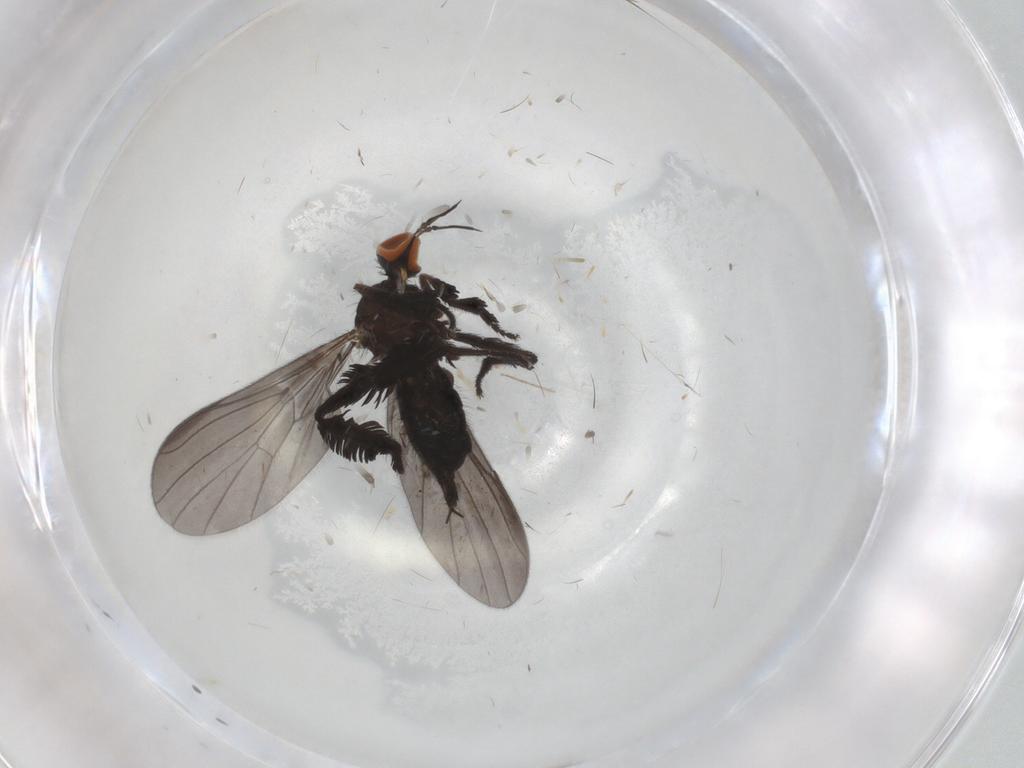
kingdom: Animalia
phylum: Arthropoda
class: Insecta
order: Diptera
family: Empididae
